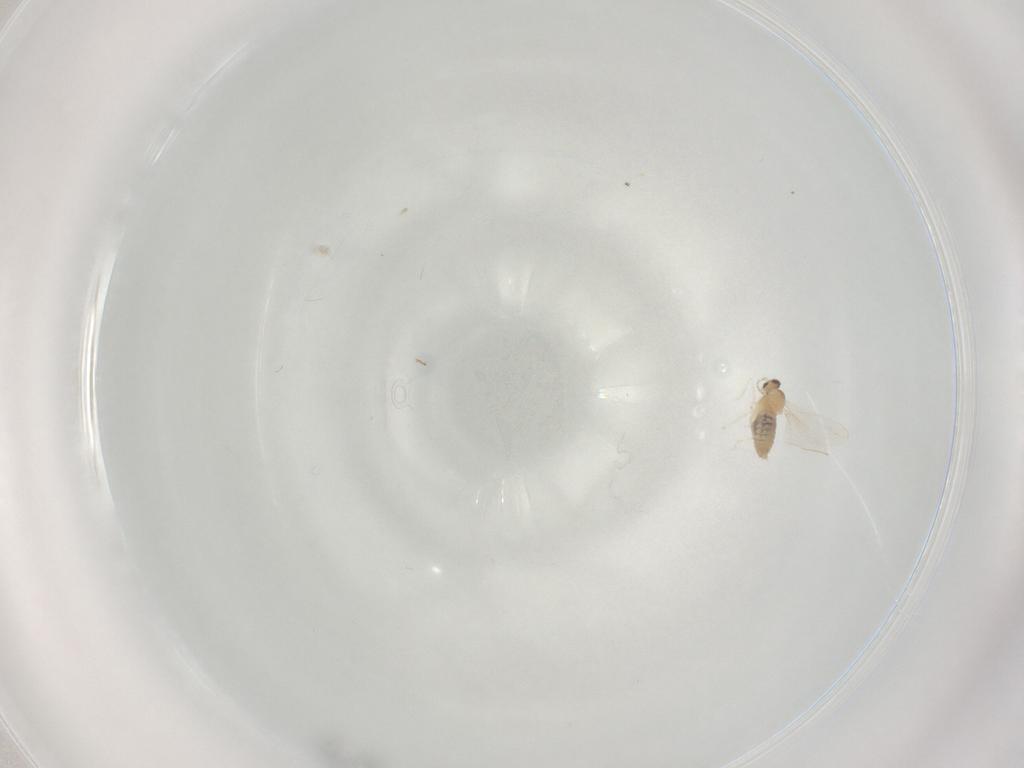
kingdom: Animalia
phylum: Arthropoda
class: Insecta
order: Diptera
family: Cecidomyiidae
